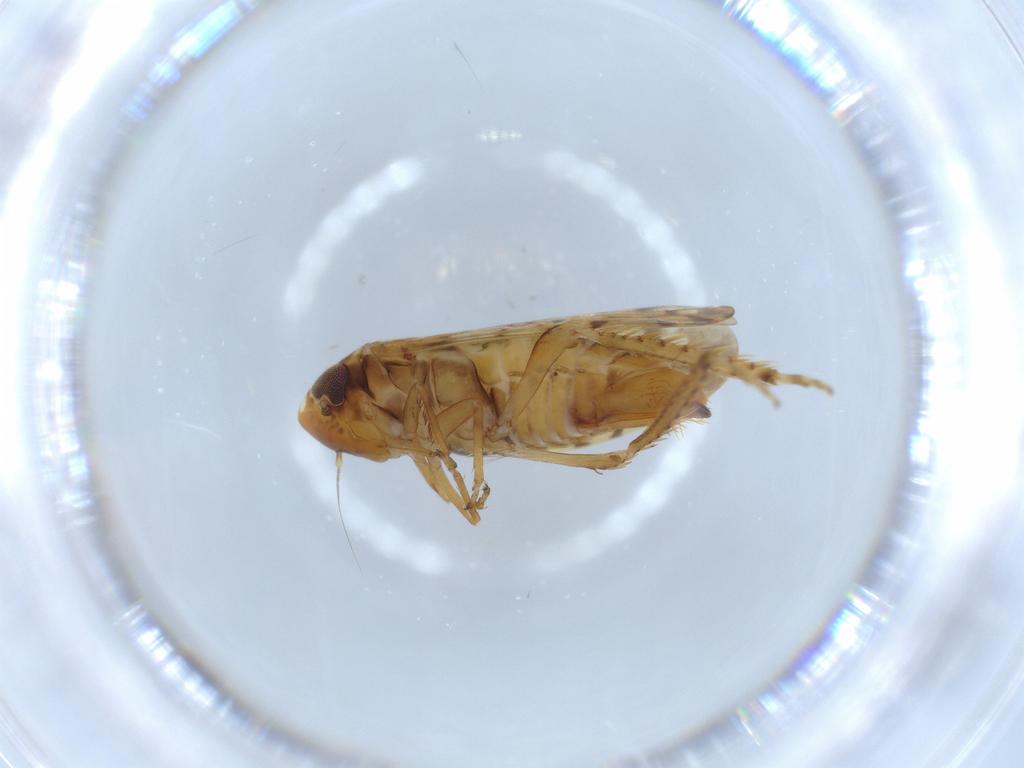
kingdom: Animalia
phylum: Arthropoda
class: Insecta
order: Hemiptera
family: Cicadellidae
